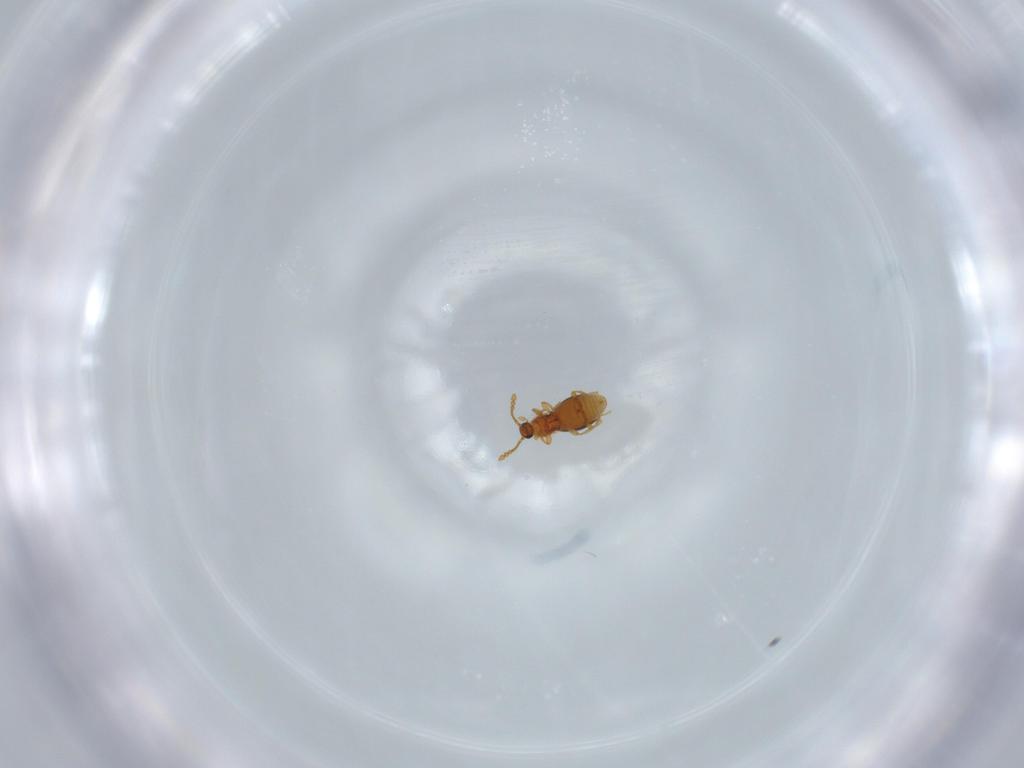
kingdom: Animalia
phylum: Arthropoda
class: Insecta
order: Coleoptera
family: Staphylinidae
